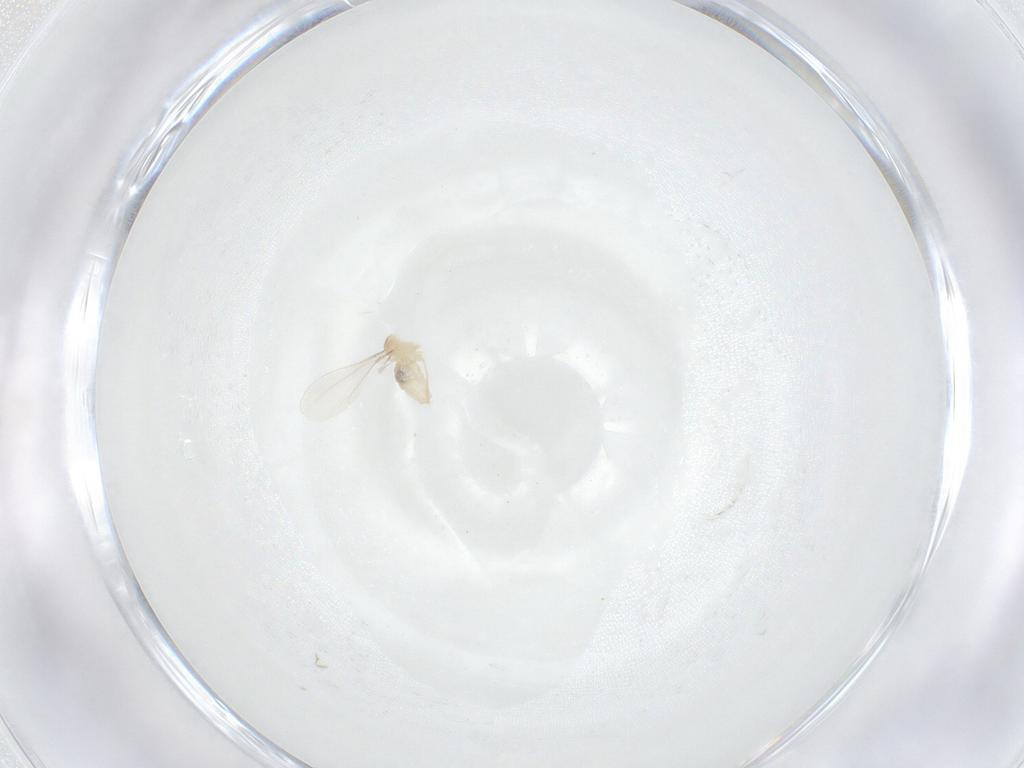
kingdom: Animalia
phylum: Arthropoda
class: Insecta
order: Diptera
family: Cecidomyiidae
